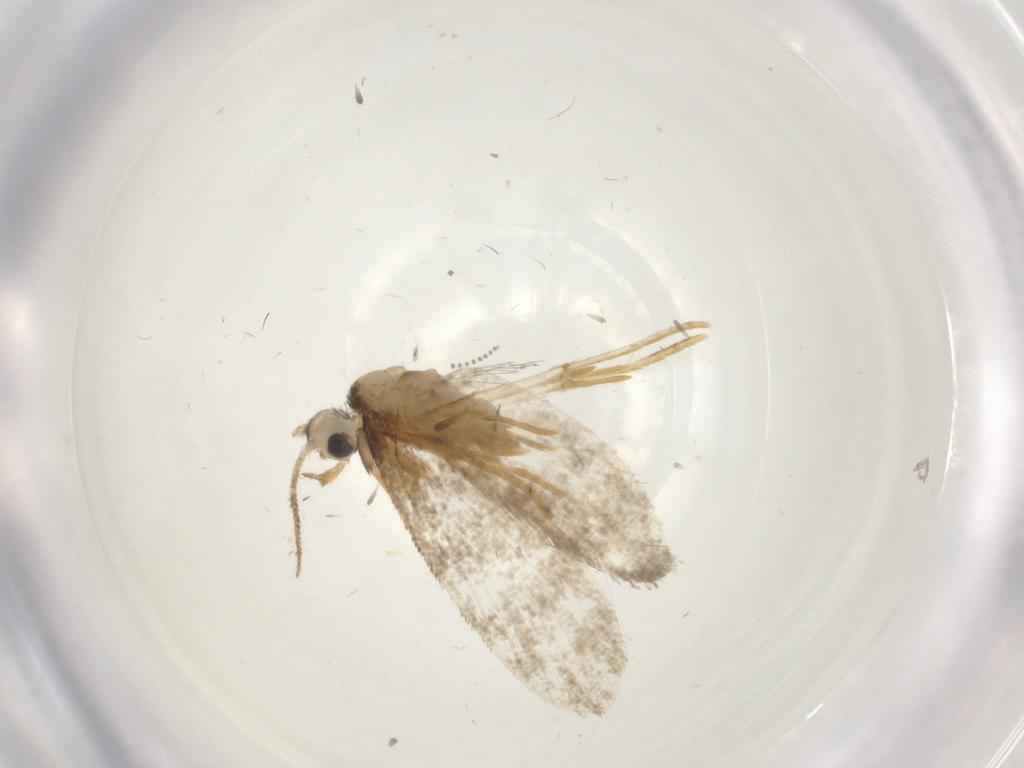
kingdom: Animalia
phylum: Arthropoda
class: Insecta
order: Lepidoptera
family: Psychidae
